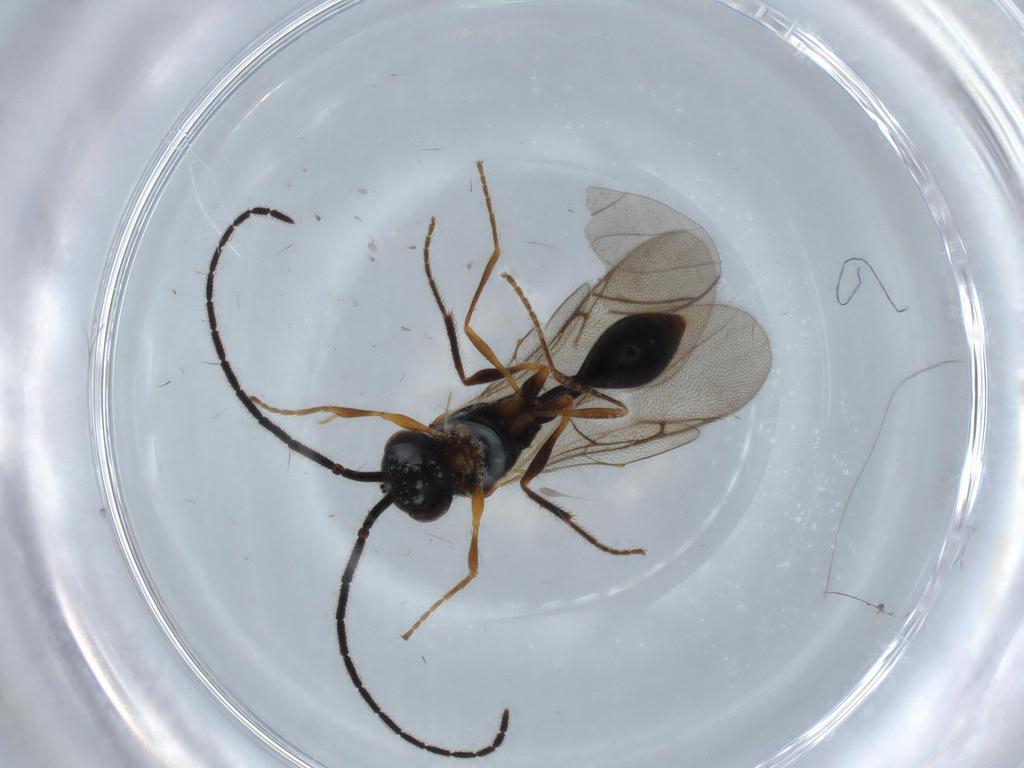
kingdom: Animalia
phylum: Arthropoda
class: Insecta
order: Hymenoptera
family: Diapriidae
